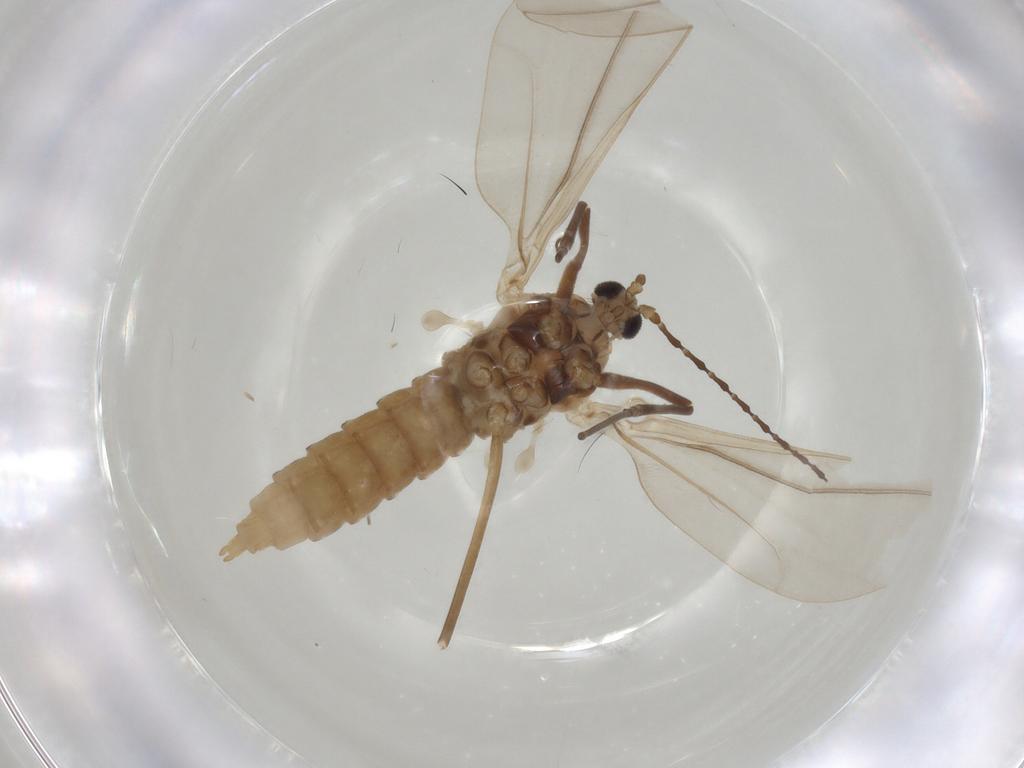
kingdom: Animalia
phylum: Arthropoda
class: Insecta
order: Diptera
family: Cecidomyiidae
